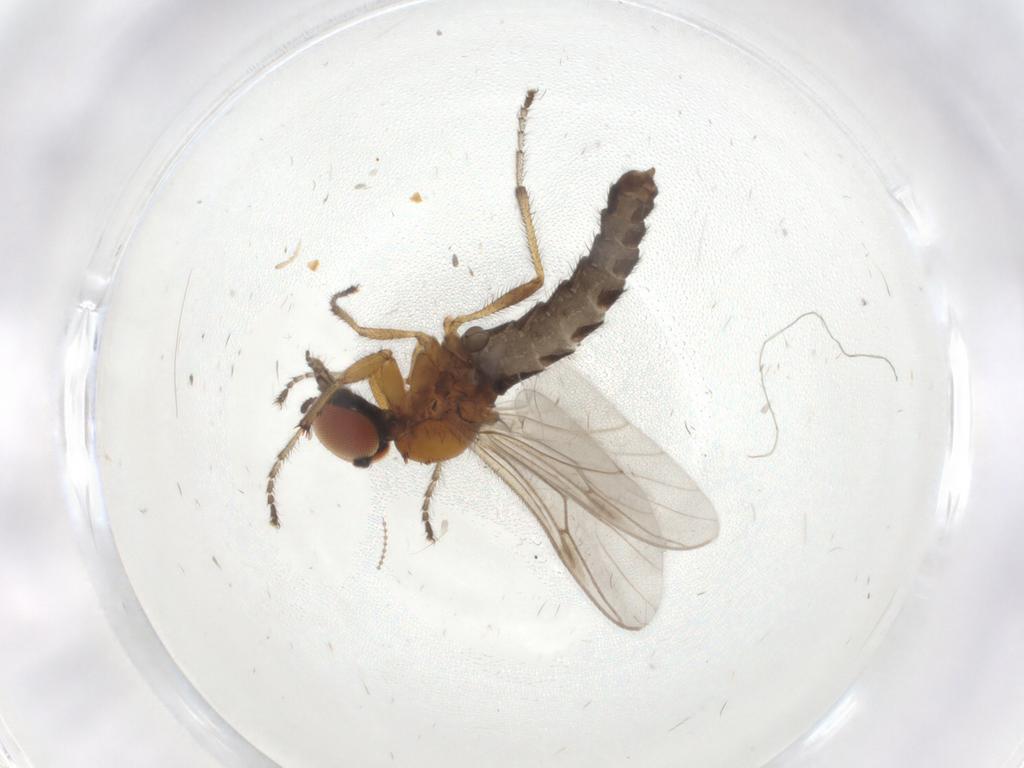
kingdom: Animalia
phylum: Arthropoda
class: Insecta
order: Diptera
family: Bibionidae
